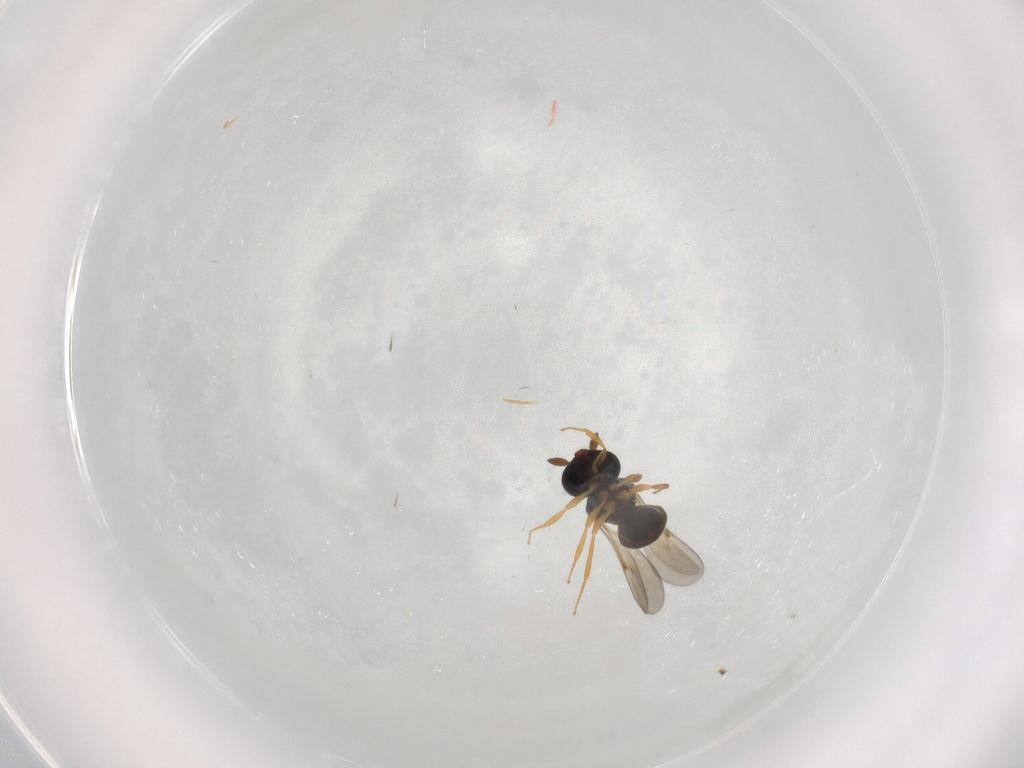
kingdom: Animalia
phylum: Arthropoda
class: Insecta
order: Hymenoptera
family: Scelionidae
